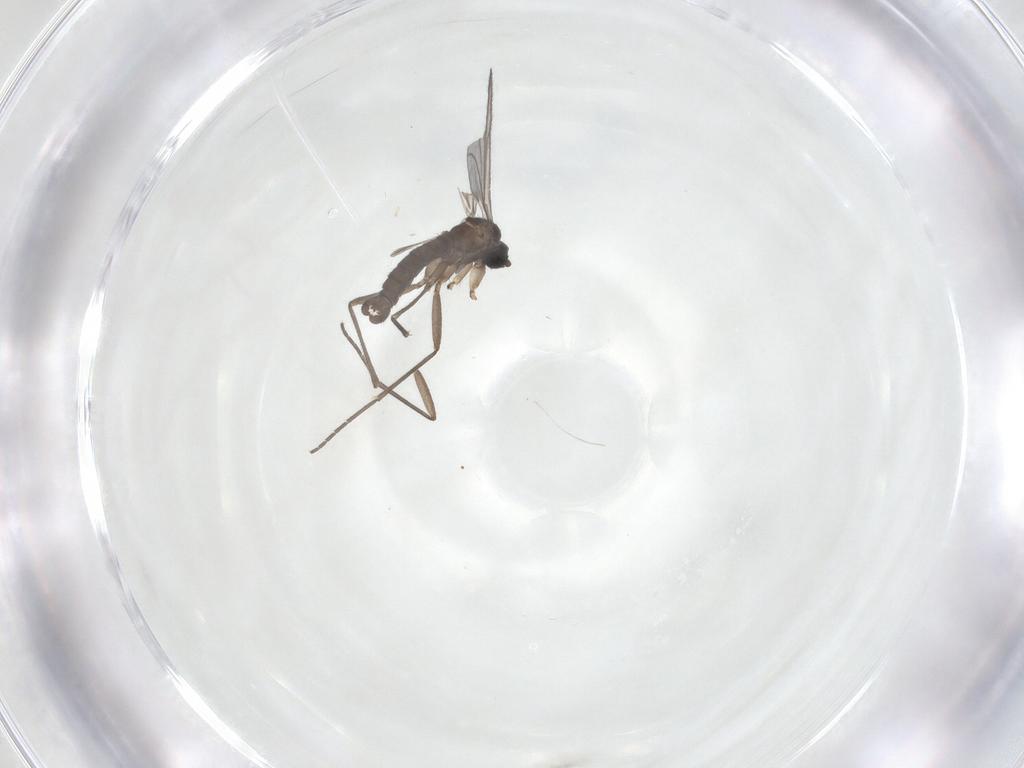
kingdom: Animalia
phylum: Arthropoda
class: Insecta
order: Diptera
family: Sciaridae
